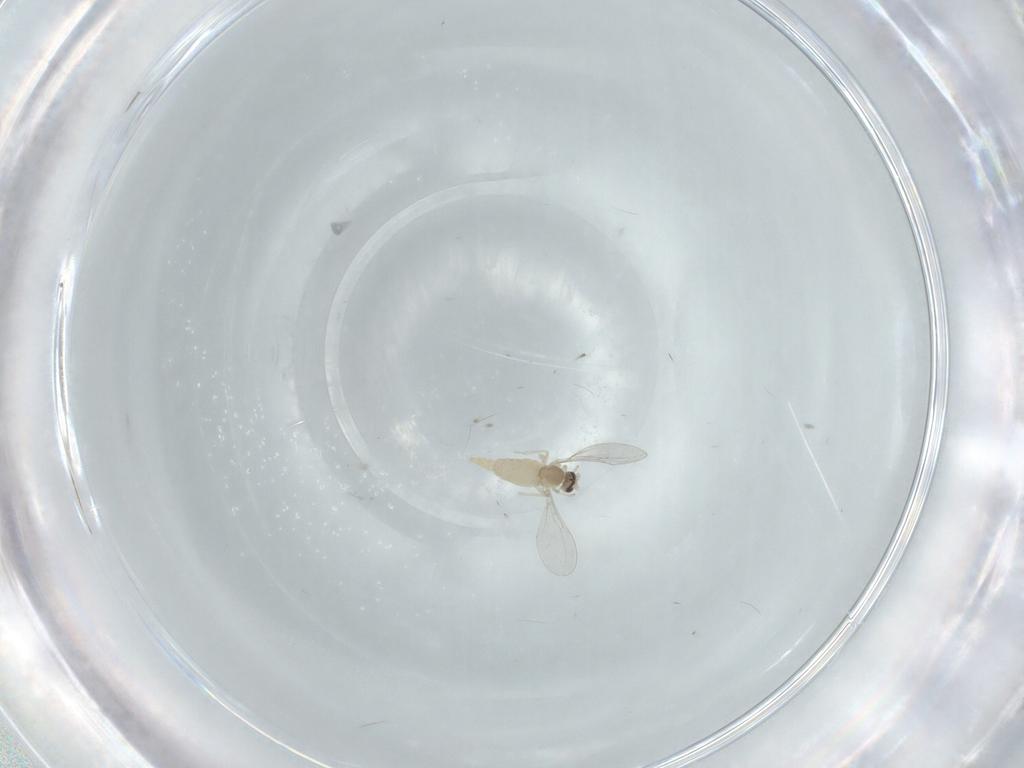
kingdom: Animalia
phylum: Arthropoda
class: Insecta
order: Diptera
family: Cecidomyiidae
